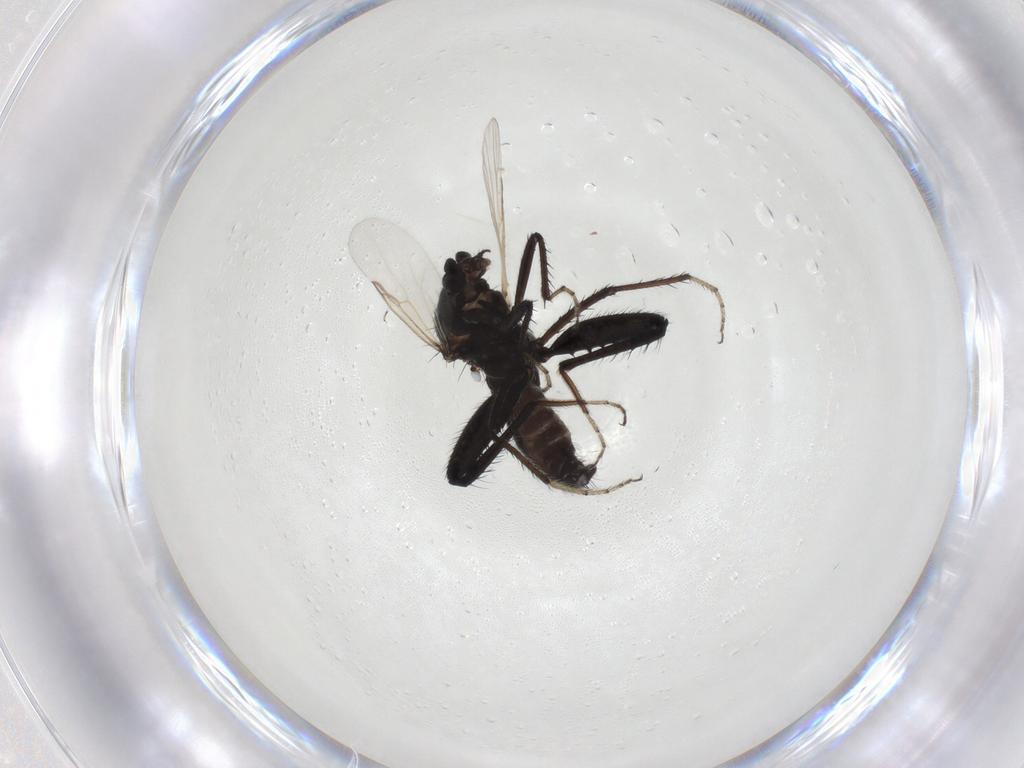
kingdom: Animalia
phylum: Arthropoda
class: Insecta
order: Diptera
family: Ceratopogonidae
